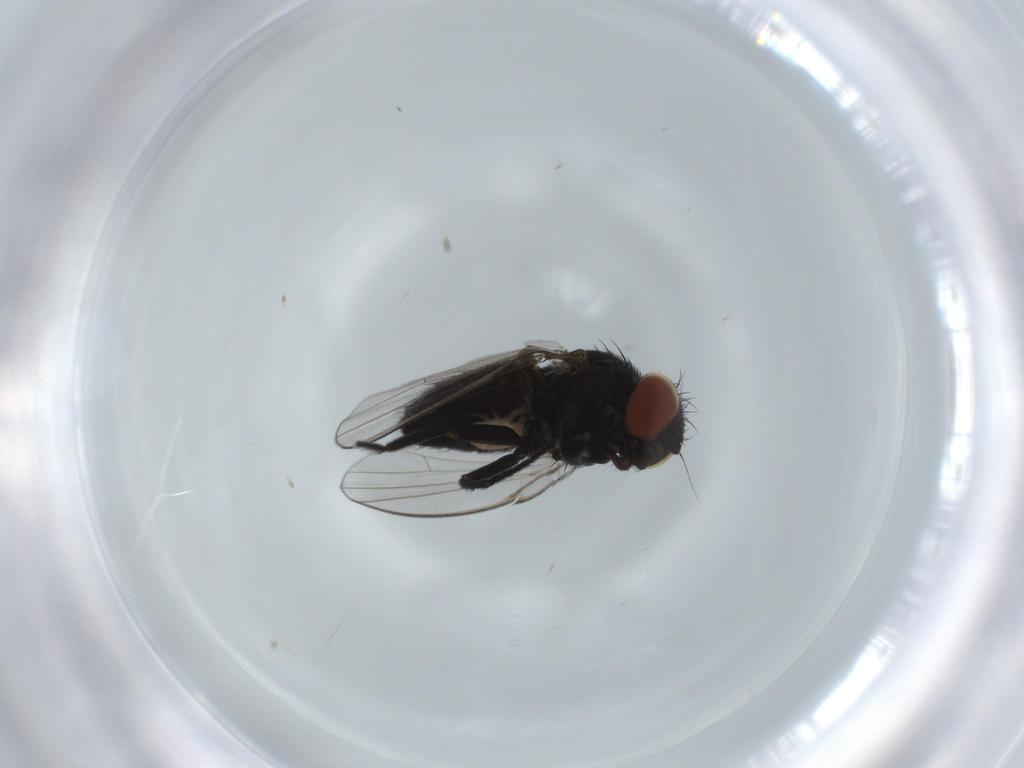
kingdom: Animalia
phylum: Arthropoda
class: Insecta
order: Diptera
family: Milichiidae
